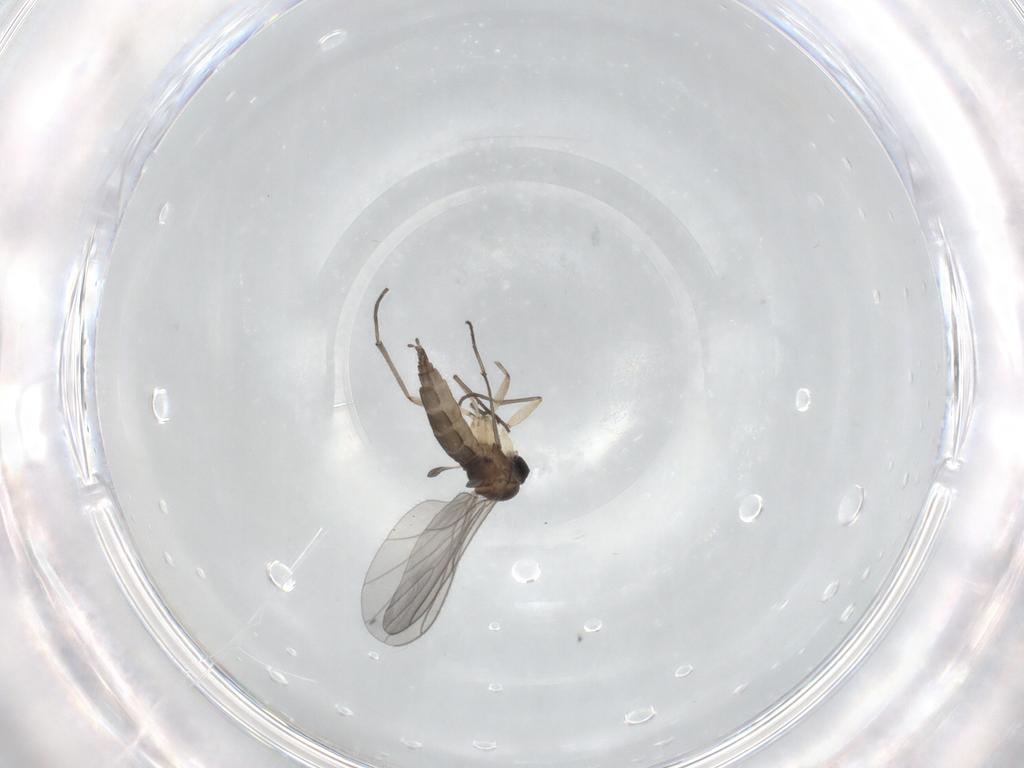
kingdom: Animalia
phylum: Arthropoda
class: Insecta
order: Diptera
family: Sciaridae
